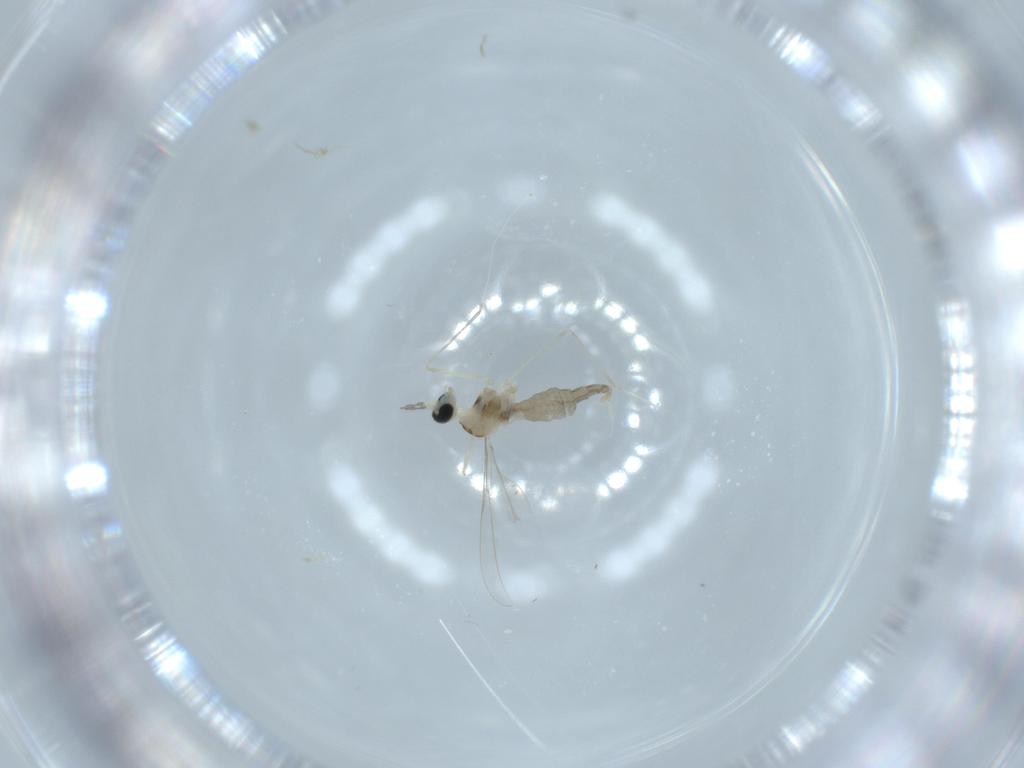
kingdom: Animalia
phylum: Arthropoda
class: Insecta
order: Diptera
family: Cecidomyiidae
